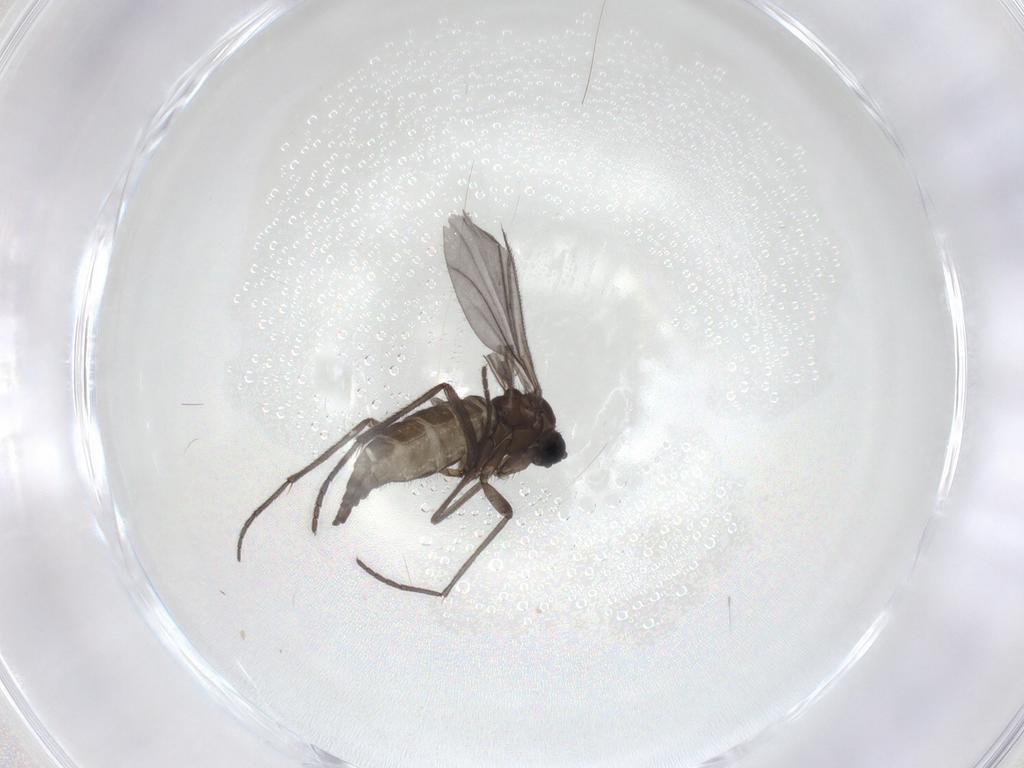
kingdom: Animalia
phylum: Arthropoda
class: Insecta
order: Diptera
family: Sciaridae
